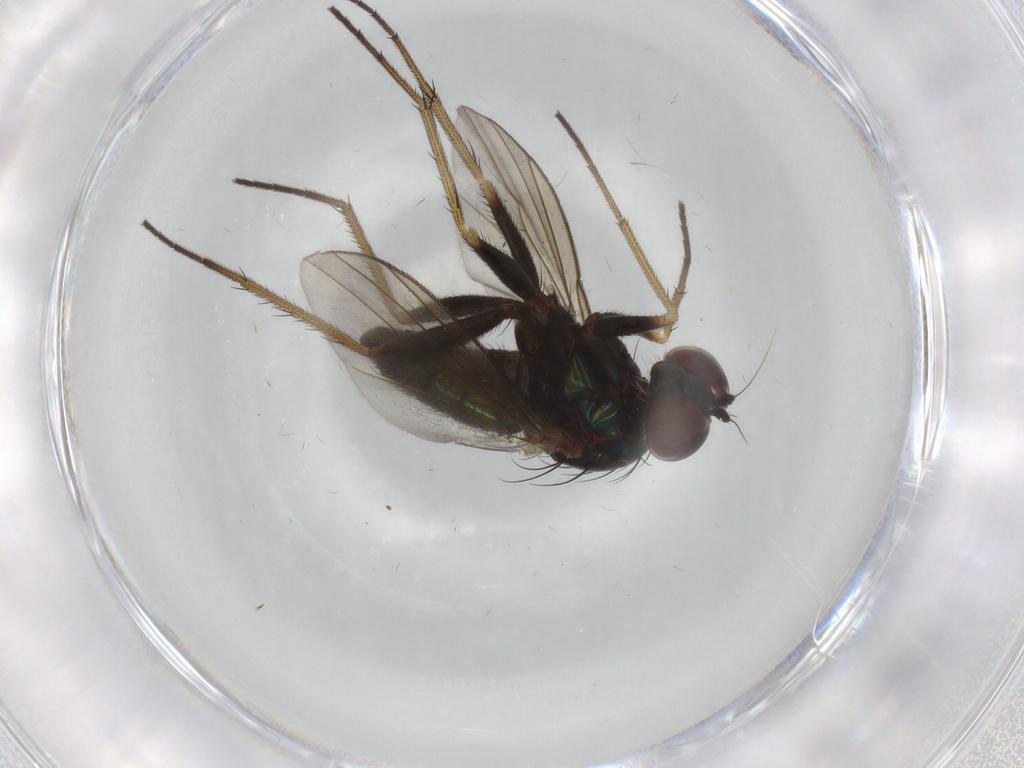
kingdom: Animalia
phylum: Arthropoda
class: Insecta
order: Diptera
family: Dolichopodidae
